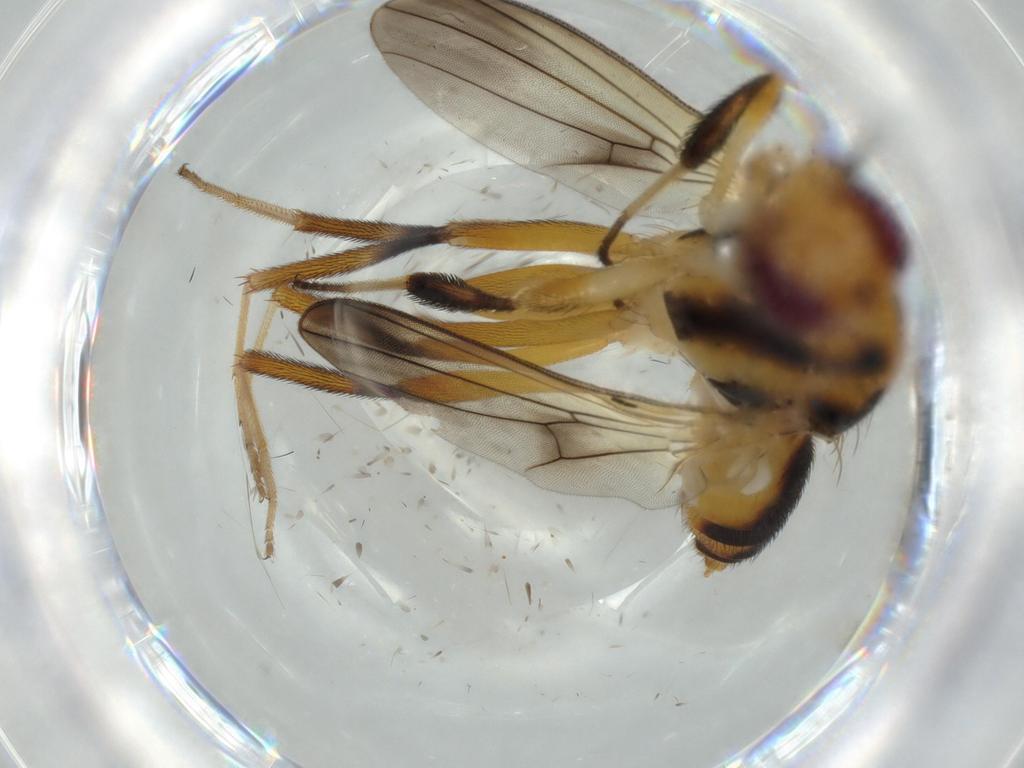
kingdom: Animalia
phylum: Arthropoda
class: Insecta
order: Diptera
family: Clusiidae
